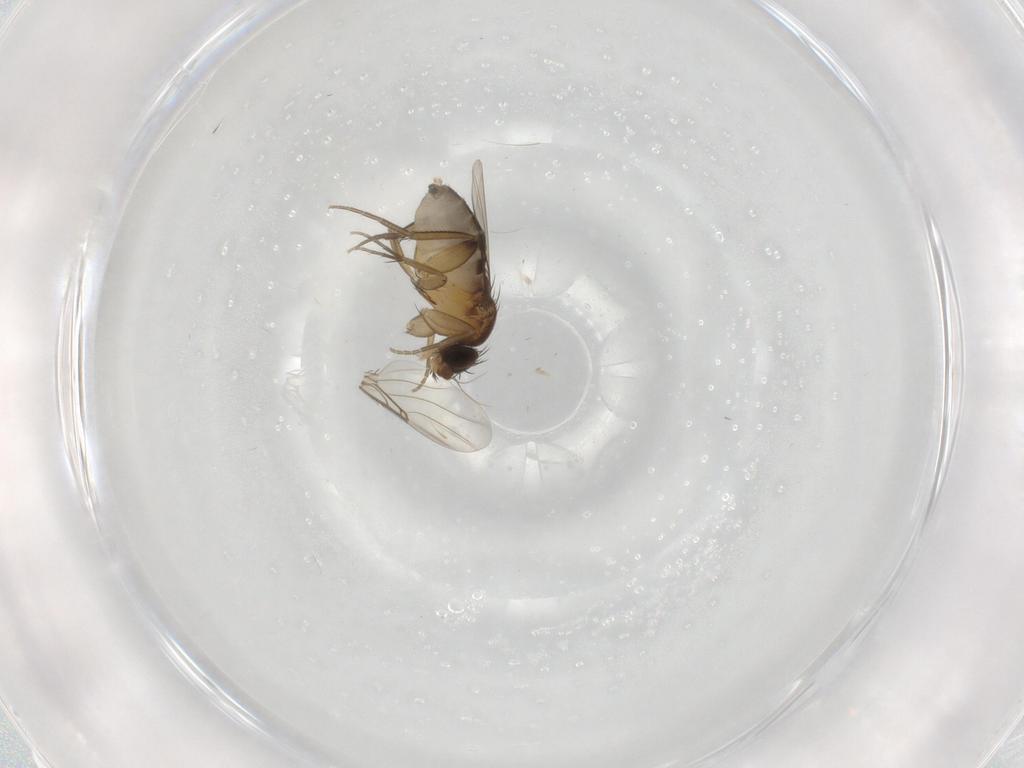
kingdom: Animalia
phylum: Arthropoda
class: Insecta
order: Diptera
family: Phoridae
